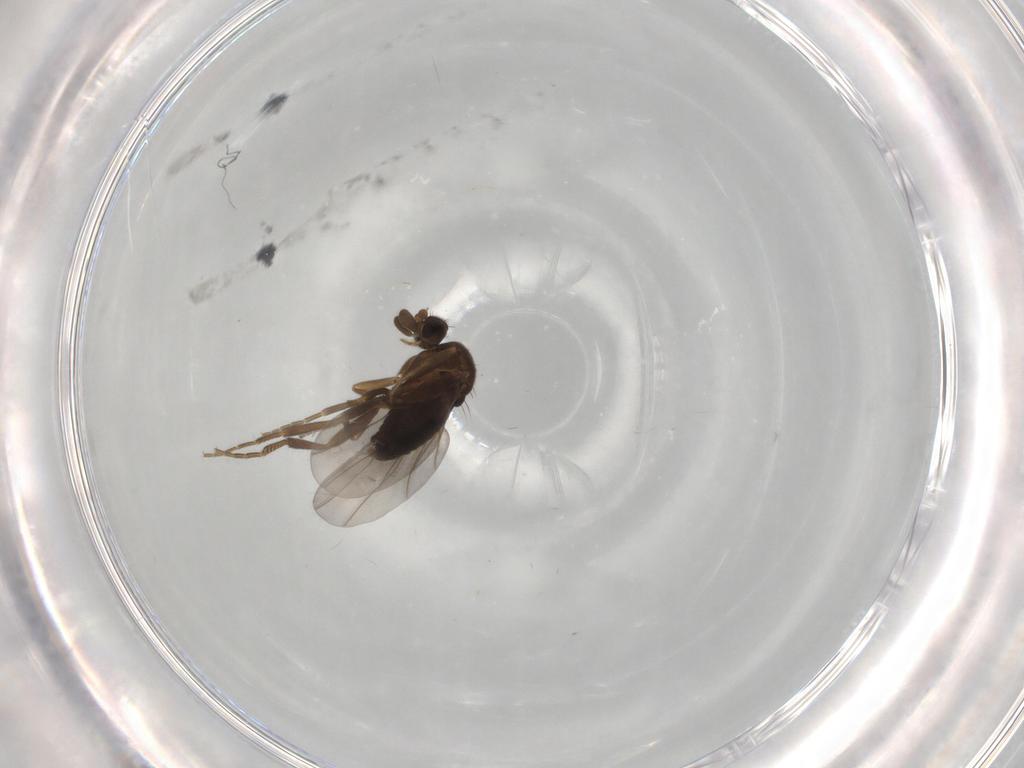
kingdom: Animalia
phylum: Arthropoda
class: Insecta
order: Diptera
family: Phoridae
